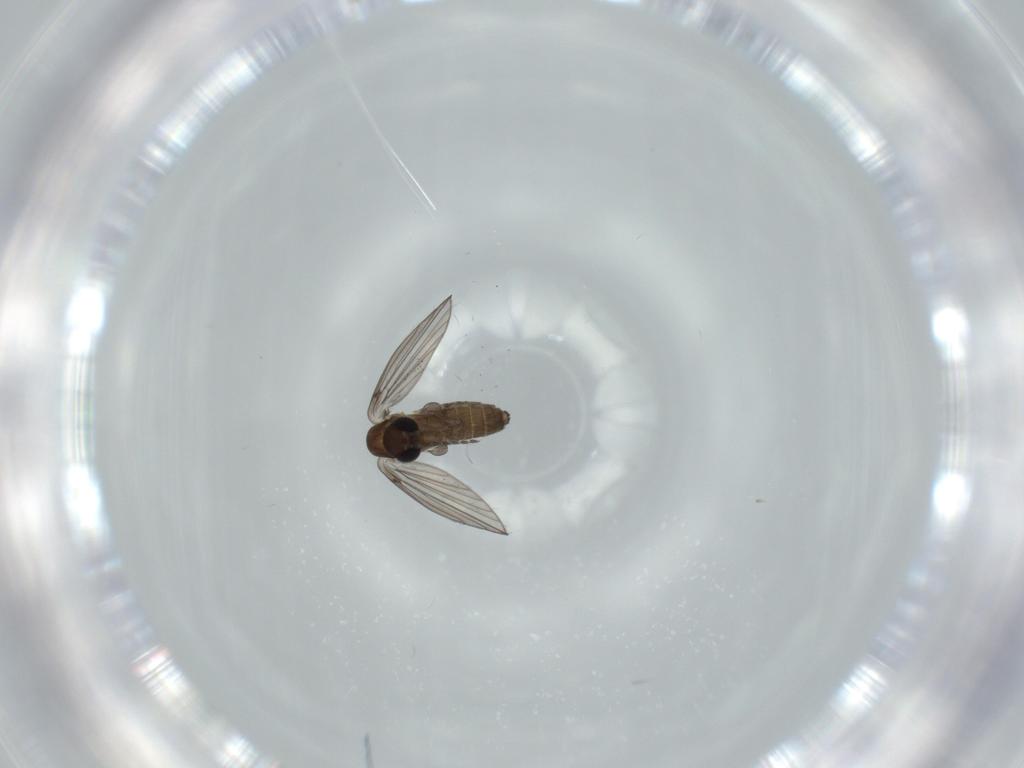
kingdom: Animalia
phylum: Arthropoda
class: Insecta
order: Diptera
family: Psychodidae
